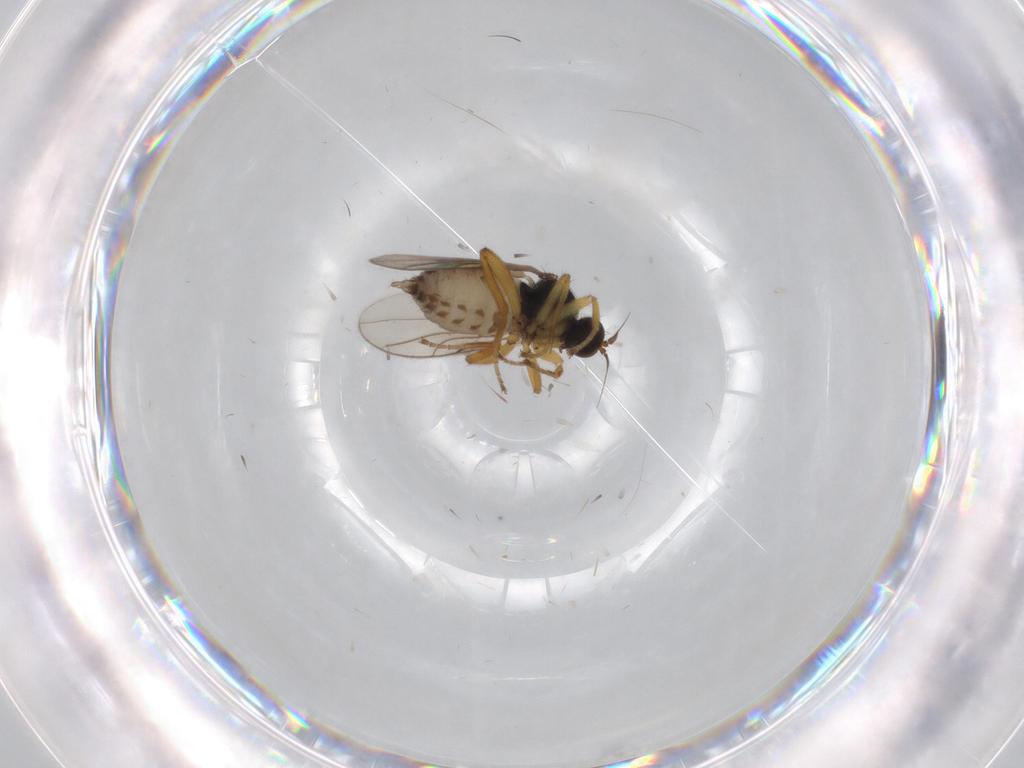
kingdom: Animalia
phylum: Arthropoda
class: Insecta
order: Diptera
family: Hybotidae
